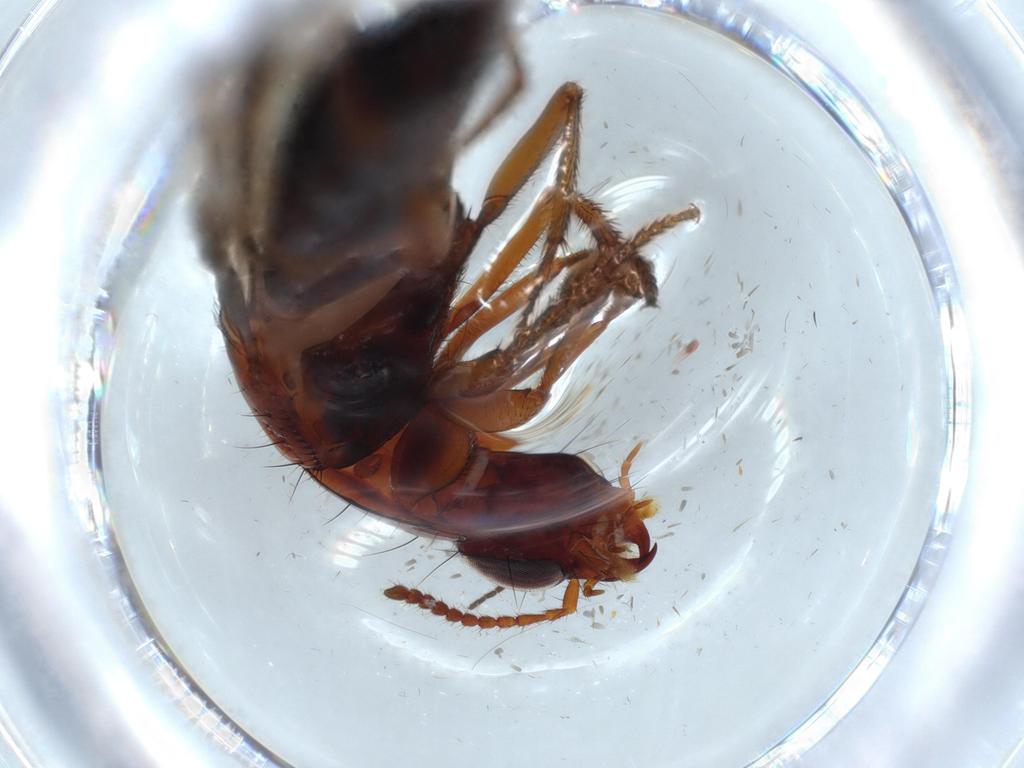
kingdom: Animalia
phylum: Arthropoda
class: Insecta
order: Coleoptera
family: Staphylinidae
